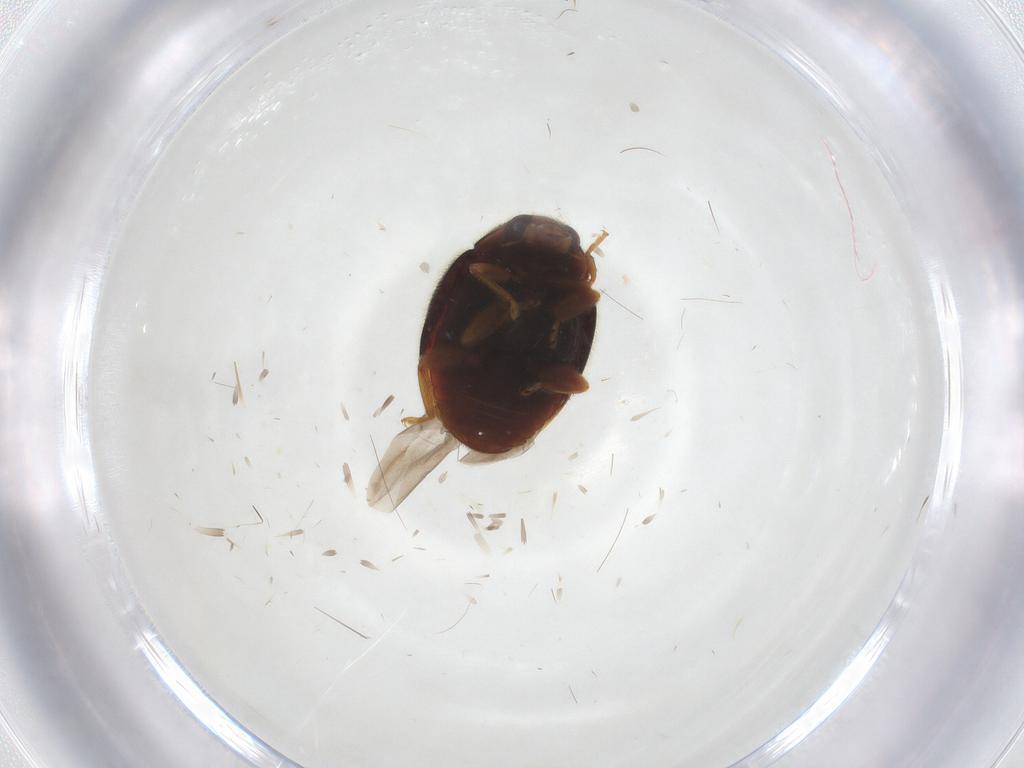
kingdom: Animalia
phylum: Arthropoda
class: Insecta
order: Coleoptera
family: Coccinellidae
